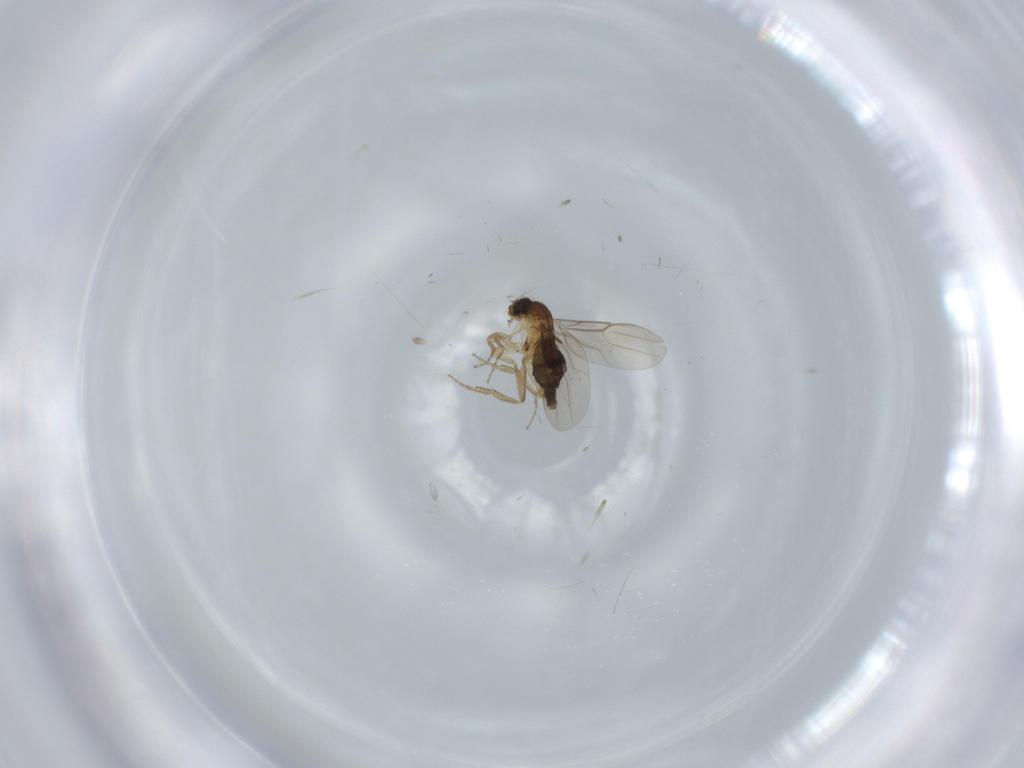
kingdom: Animalia
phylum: Arthropoda
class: Insecta
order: Diptera
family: Phoridae
